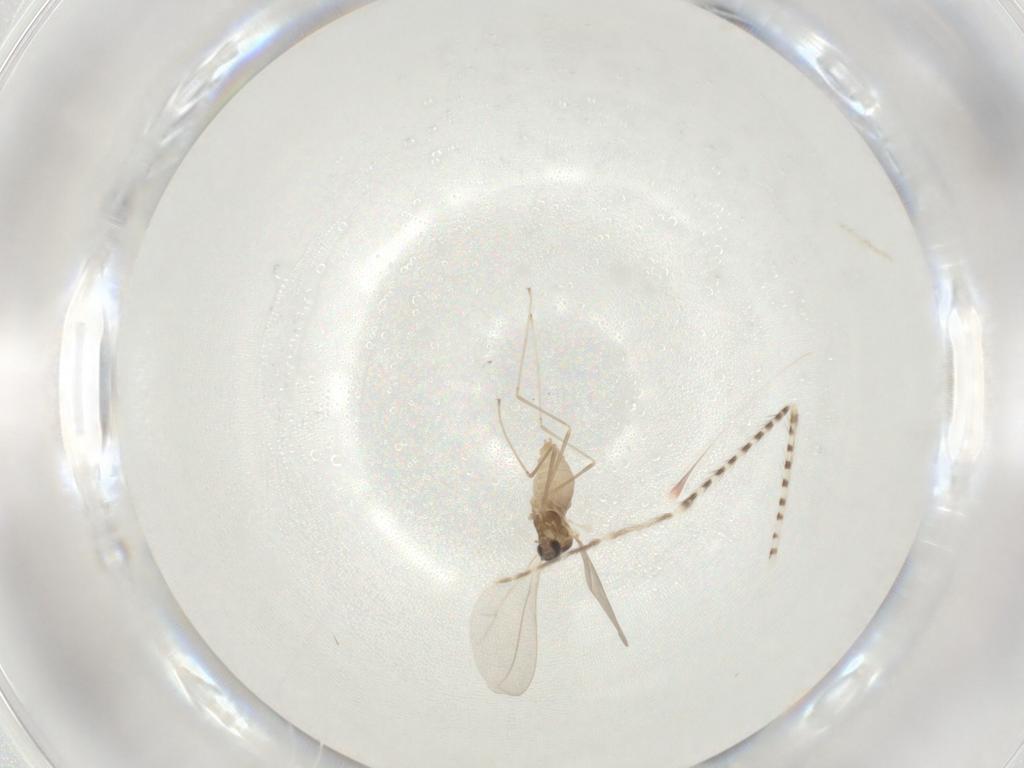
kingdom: Animalia
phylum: Arthropoda
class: Insecta
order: Diptera
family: Chaoboridae
